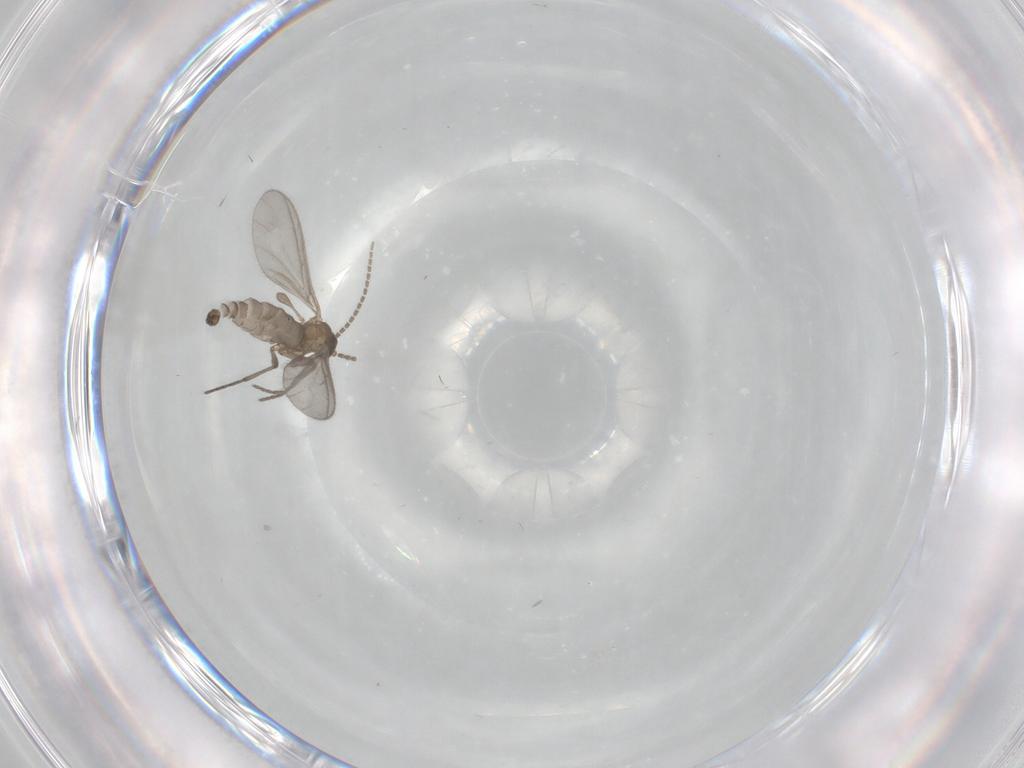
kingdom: Animalia
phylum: Arthropoda
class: Insecta
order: Diptera
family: Sciaridae
